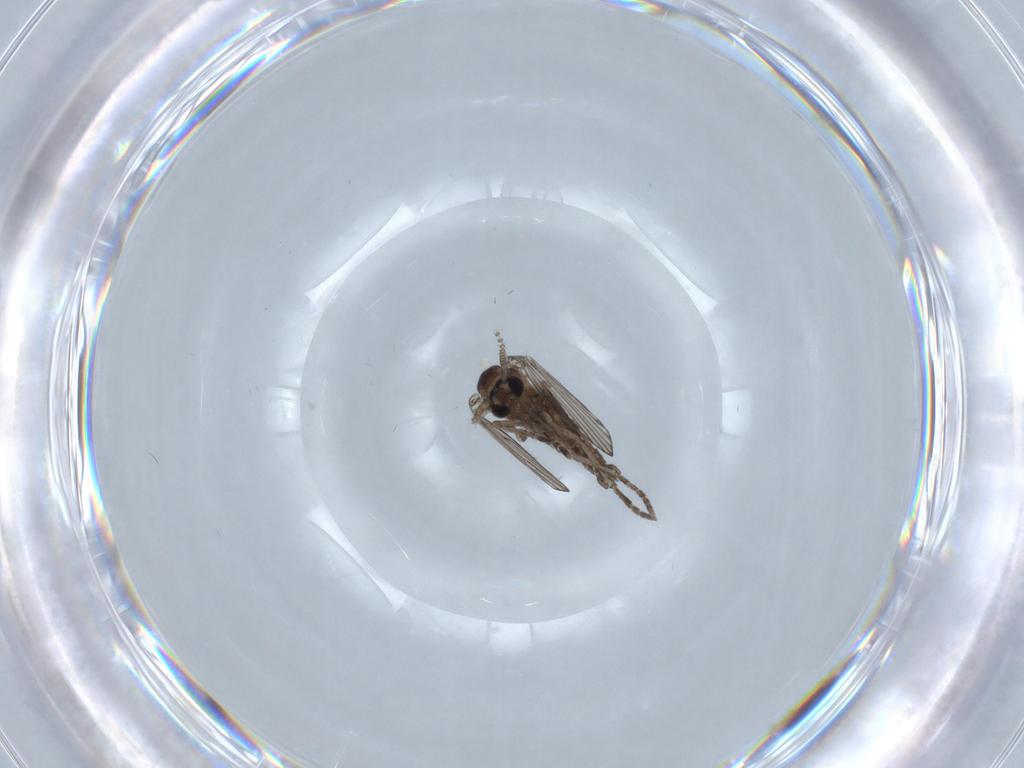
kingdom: Animalia
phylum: Arthropoda
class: Insecta
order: Diptera
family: Psychodidae
